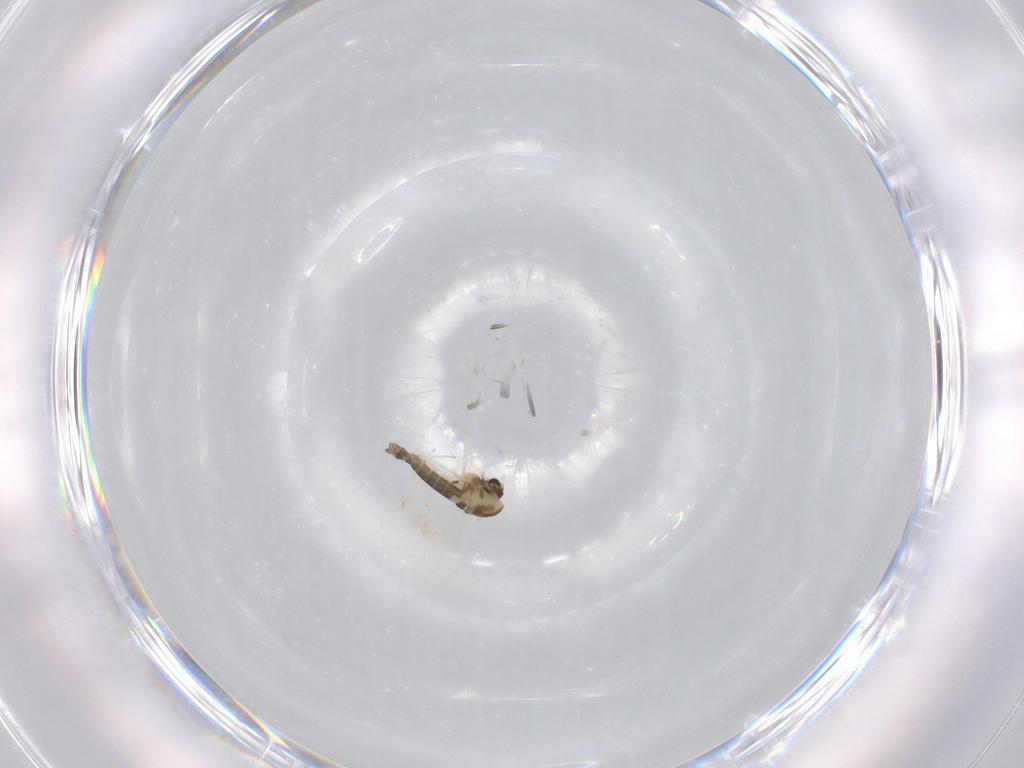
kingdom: Animalia
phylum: Arthropoda
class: Insecta
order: Diptera
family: Chironomidae
